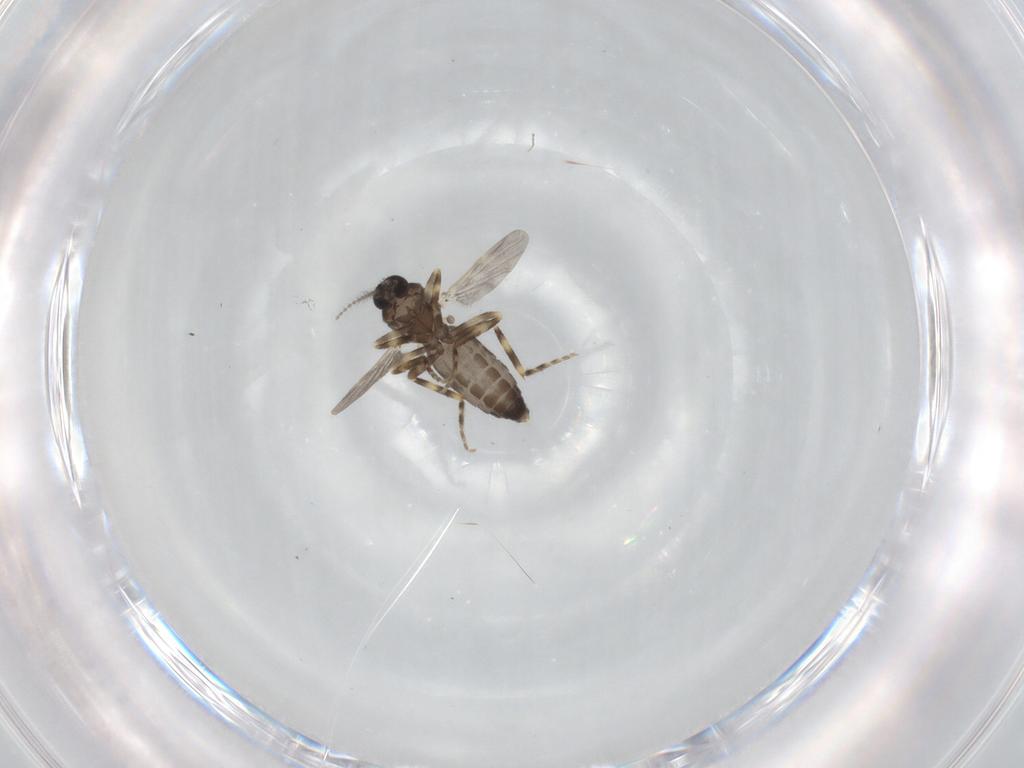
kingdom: Animalia
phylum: Arthropoda
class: Insecta
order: Diptera
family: Ceratopogonidae
